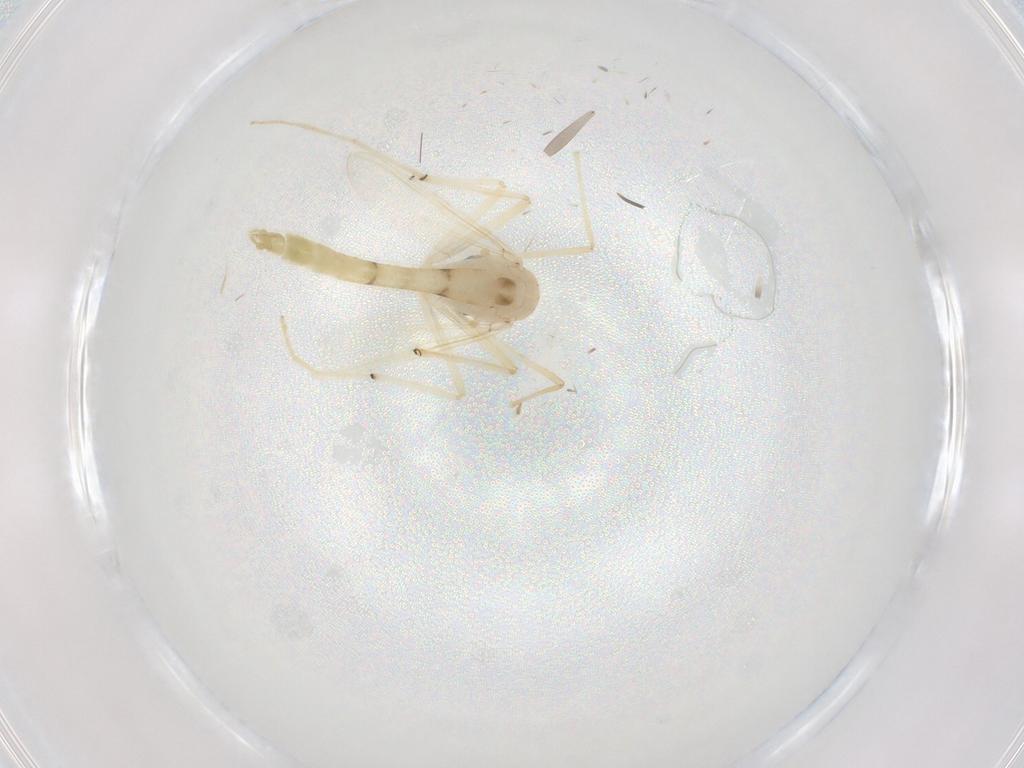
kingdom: Animalia
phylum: Arthropoda
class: Insecta
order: Diptera
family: Chironomidae
